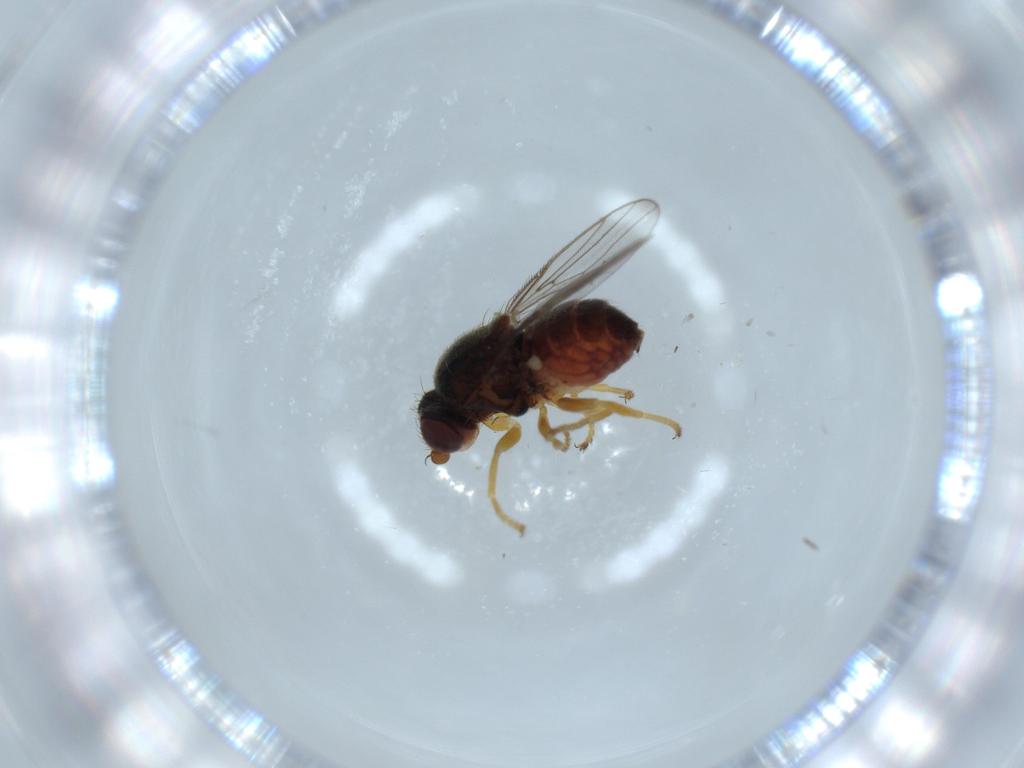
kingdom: Animalia
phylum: Arthropoda
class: Insecta
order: Diptera
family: Chloropidae
